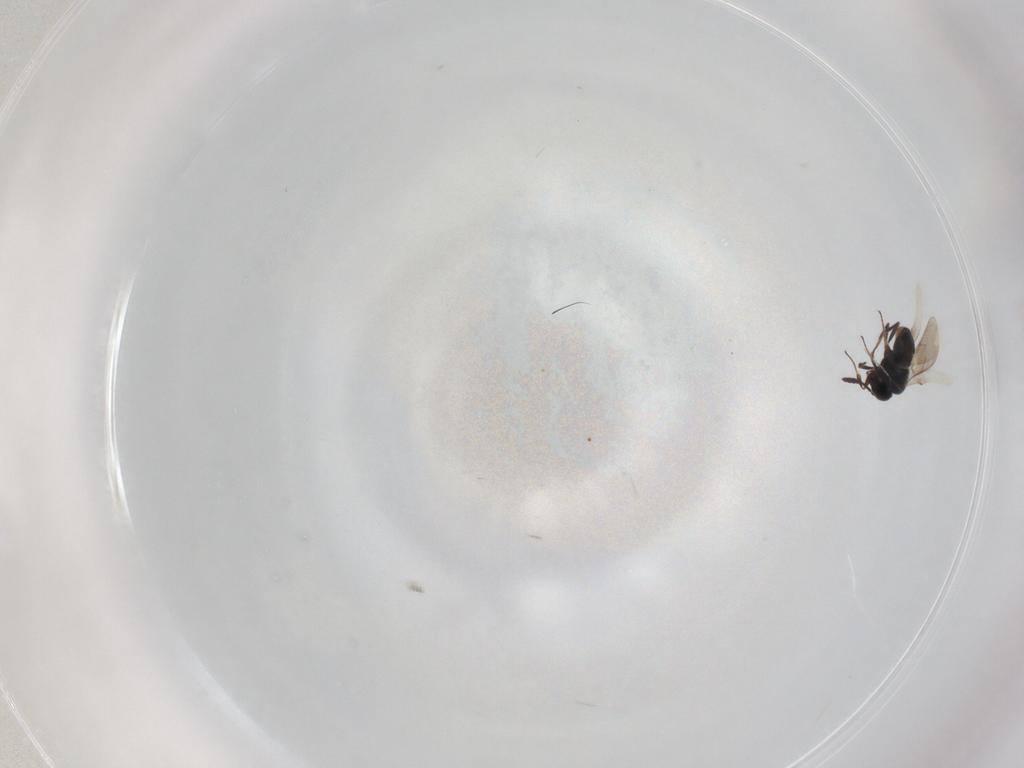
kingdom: Animalia
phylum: Arthropoda
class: Insecta
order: Hymenoptera
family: Scelionidae
